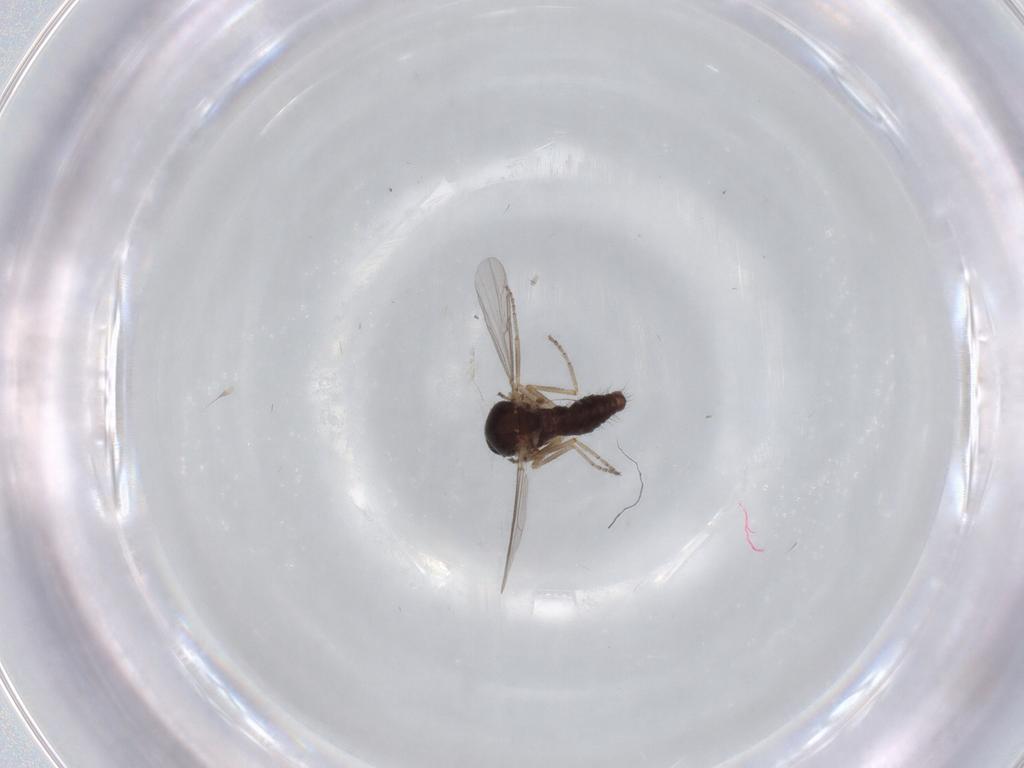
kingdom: Animalia
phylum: Arthropoda
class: Insecta
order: Diptera
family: Ceratopogonidae
